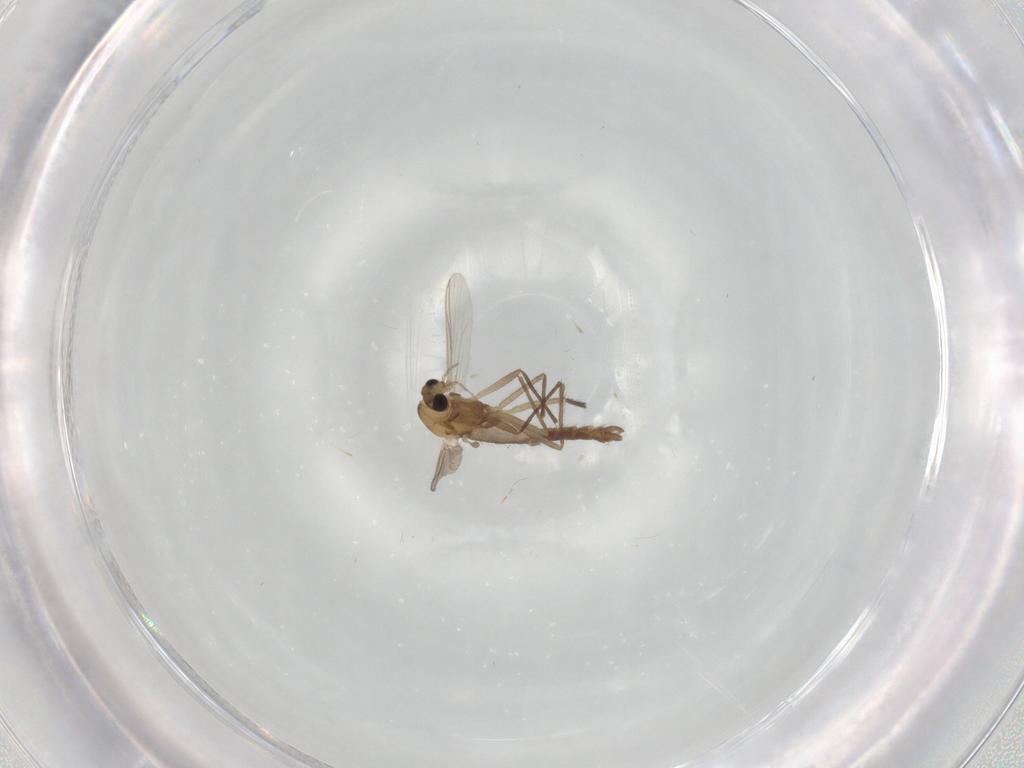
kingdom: Animalia
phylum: Arthropoda
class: Insecta
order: Diptera
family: Chironomidae
